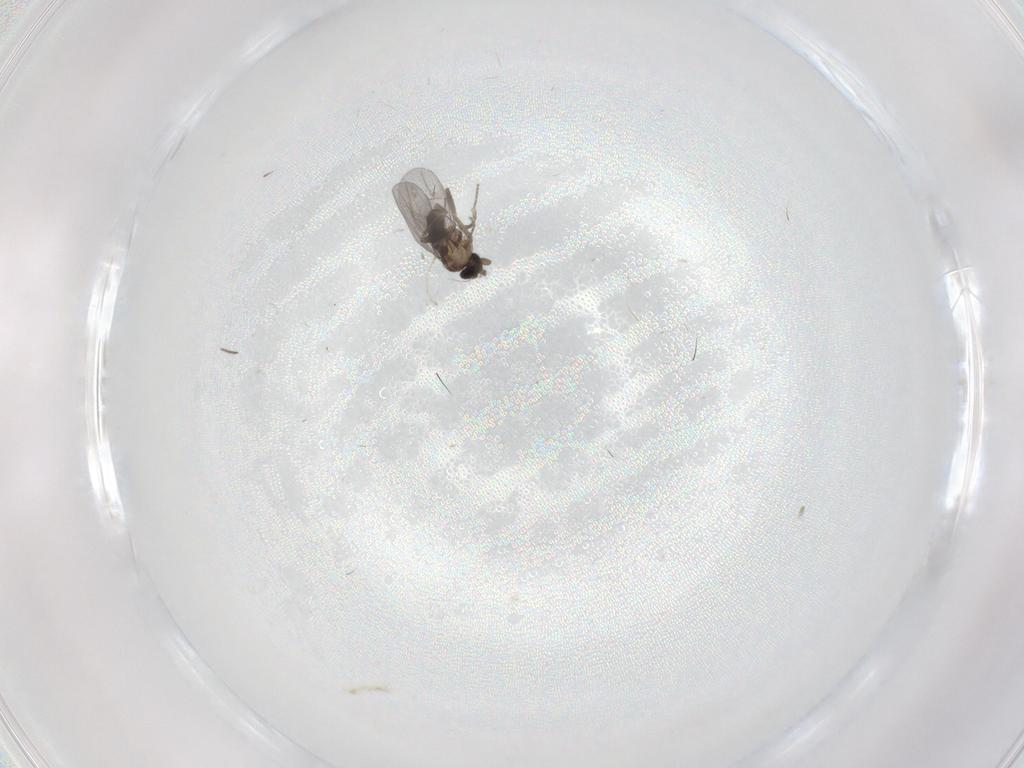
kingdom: Animalia
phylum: Arthropoda
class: Insecta
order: Diptera
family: Cecidomyiidae
